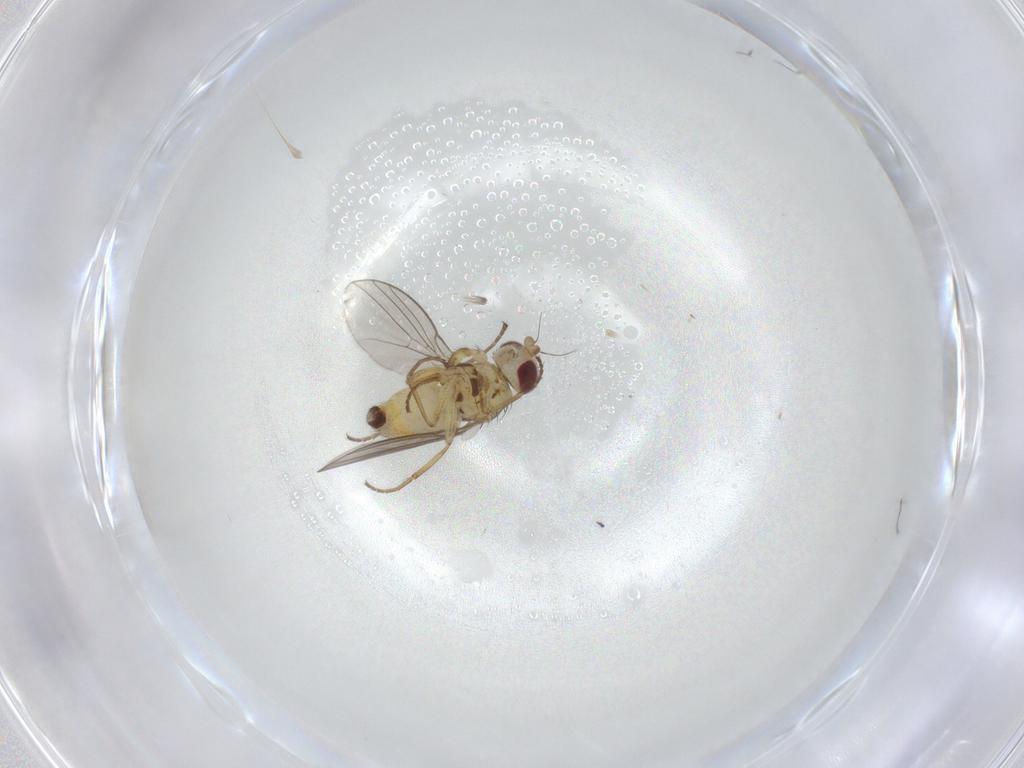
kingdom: Animalia
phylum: Arthropoda
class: Insecta
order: Diptera
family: Agromyzidae
